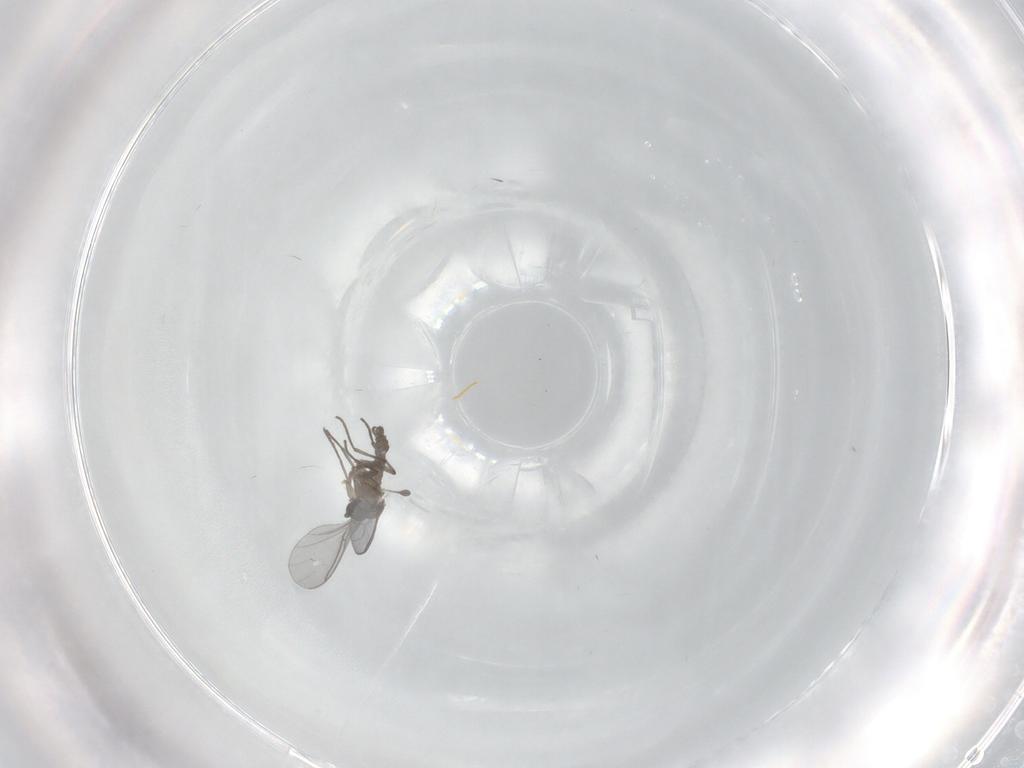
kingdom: Animalia
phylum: Arthropoda
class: Insecta
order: Diptera
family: Sciaridae
